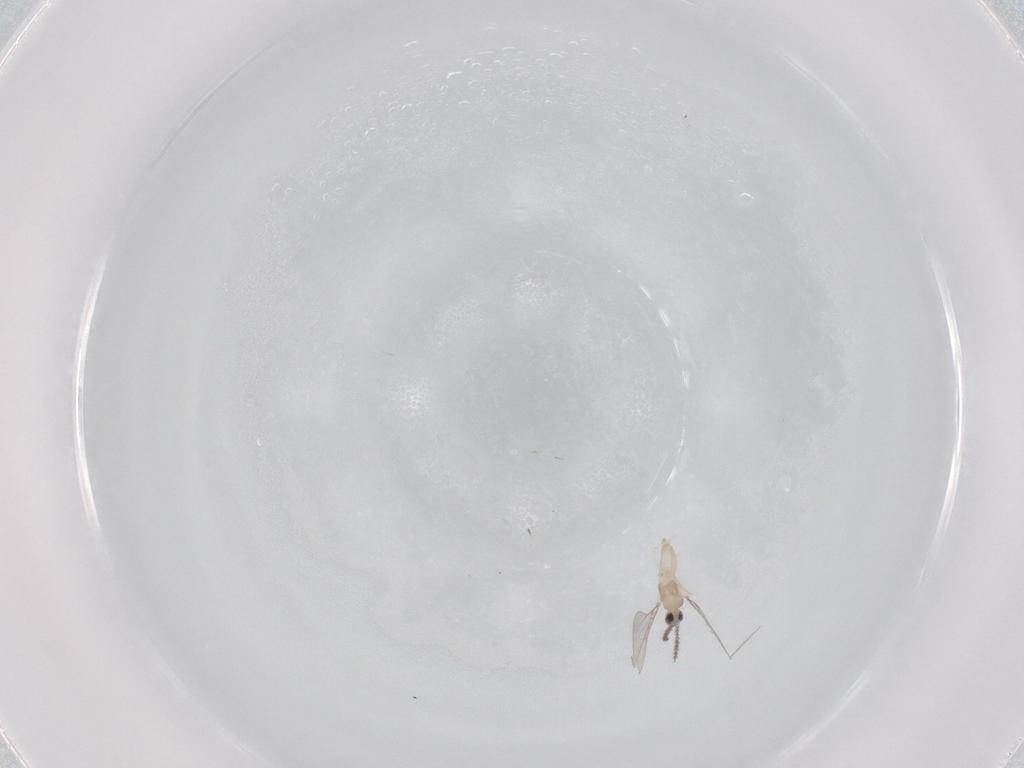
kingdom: Animalia
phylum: Arthropoda
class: Insecta
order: Diptera
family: Cecidomyiidae
